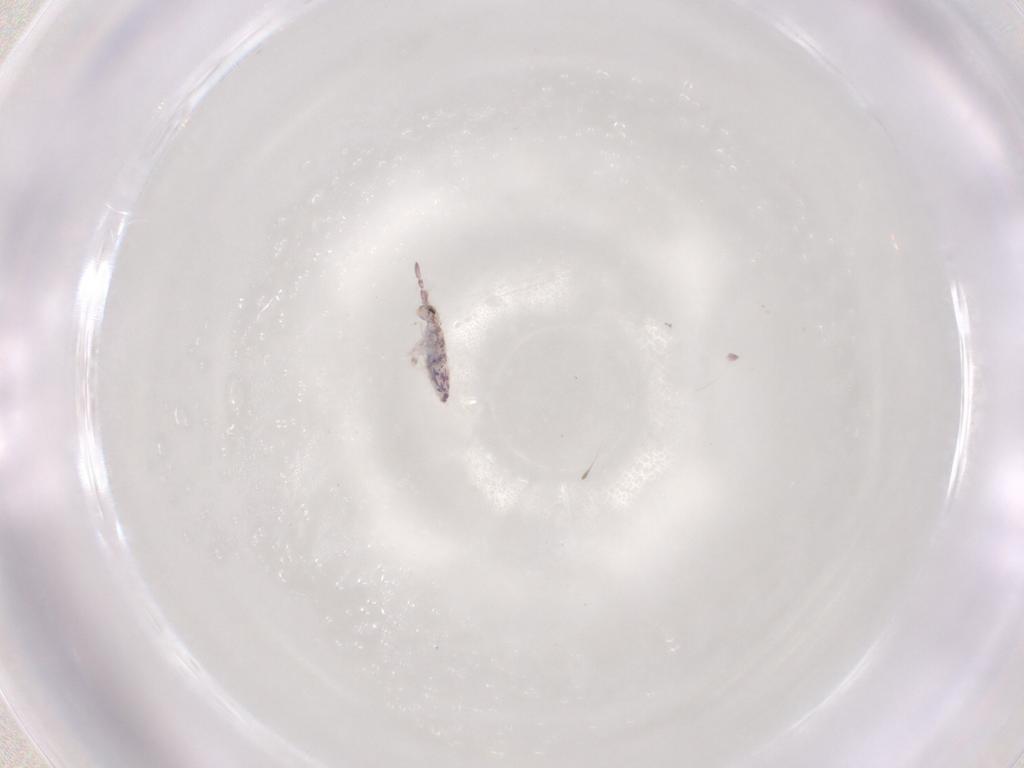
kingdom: Animalia
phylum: Arthropoda
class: Collembola
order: Entomobryomorpha
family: Entomobryidae
